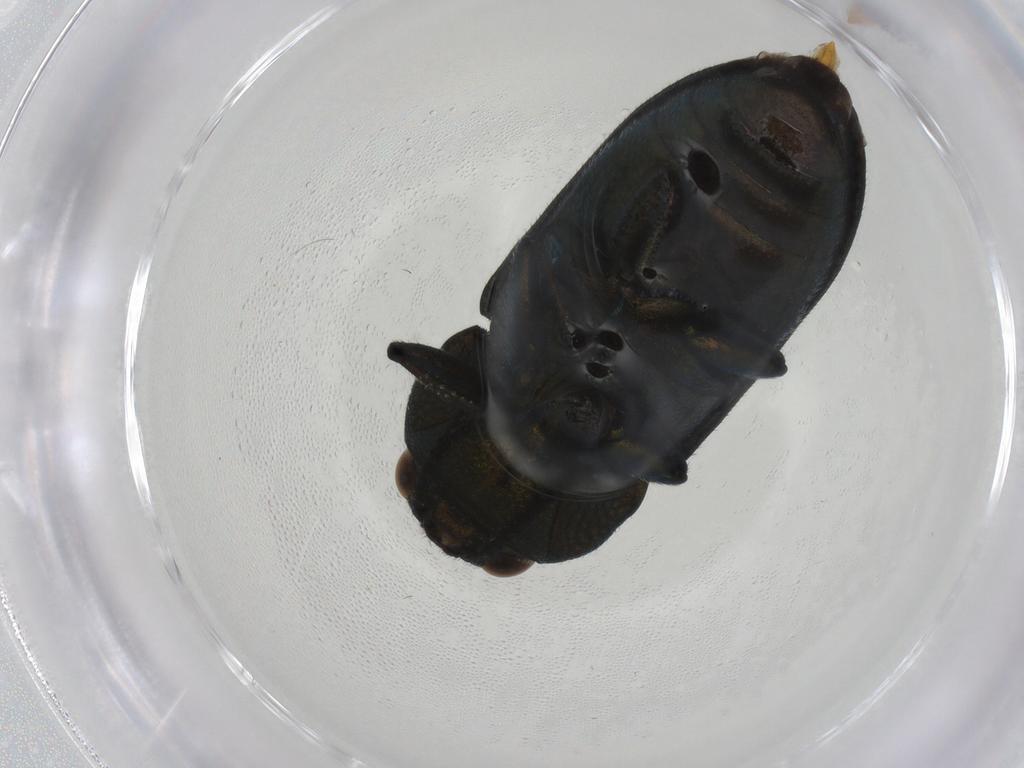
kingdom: Animalia
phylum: Arthropoda
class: Insecta
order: Coleoptera
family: Buprestidae
